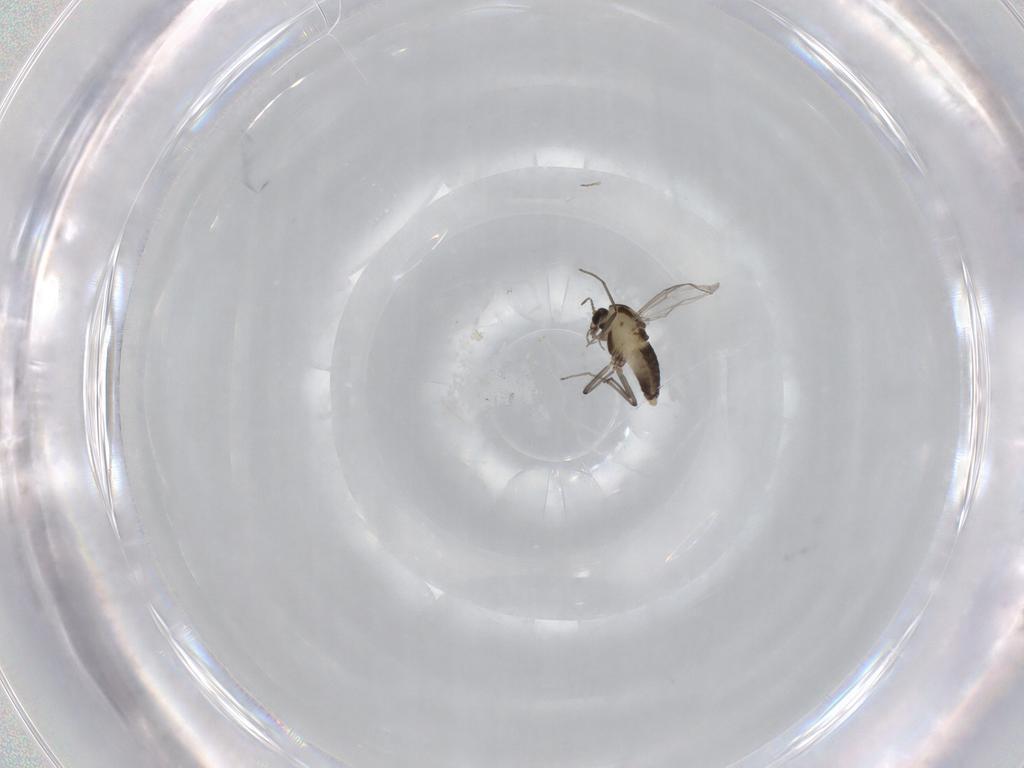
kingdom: Animalia
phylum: Arthropoda
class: Insecta
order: Diptera
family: Chironomidae
